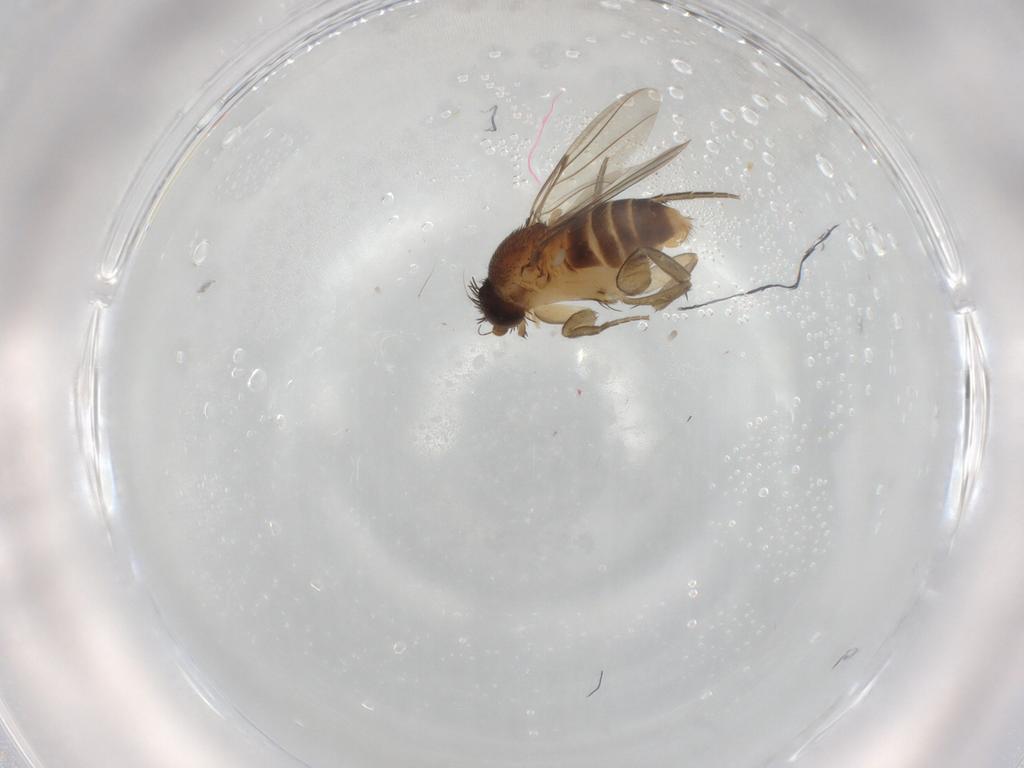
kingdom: Animalia
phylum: Arthropoda
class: Insecta
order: Diptera
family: Phoridae
